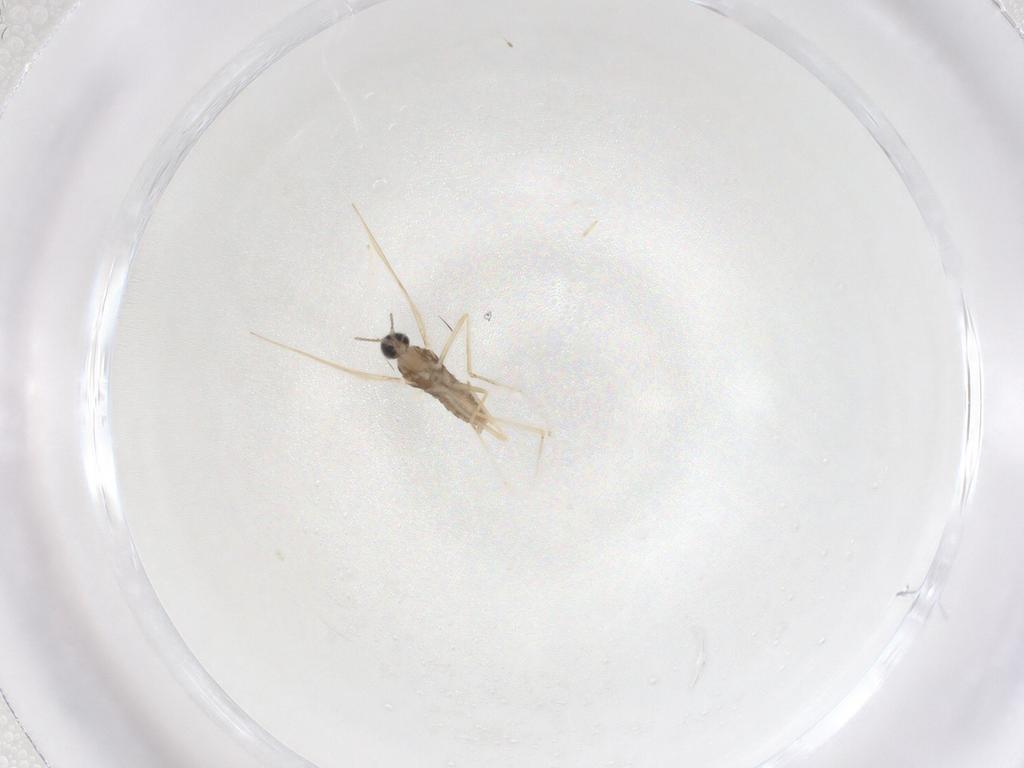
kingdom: Animalia
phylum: Arthropoda
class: Insecta
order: Diptera
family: Cecidomyiidae
